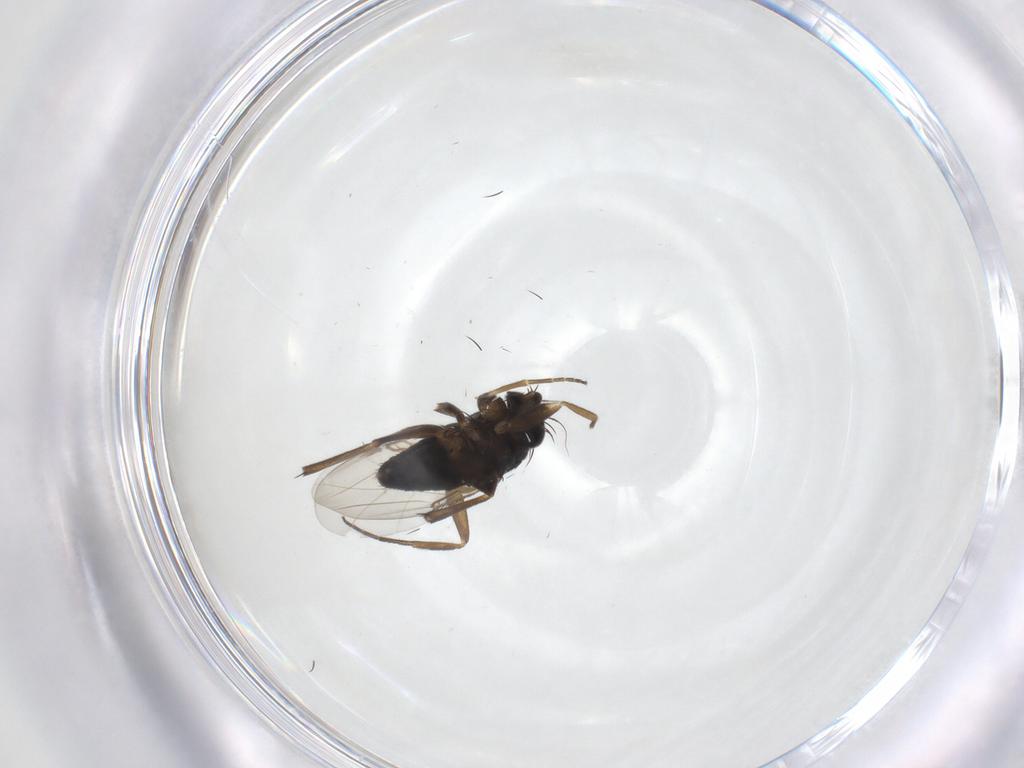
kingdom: Animalia
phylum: Arthropoda
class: Insecta
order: Diptera
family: Phoridae
